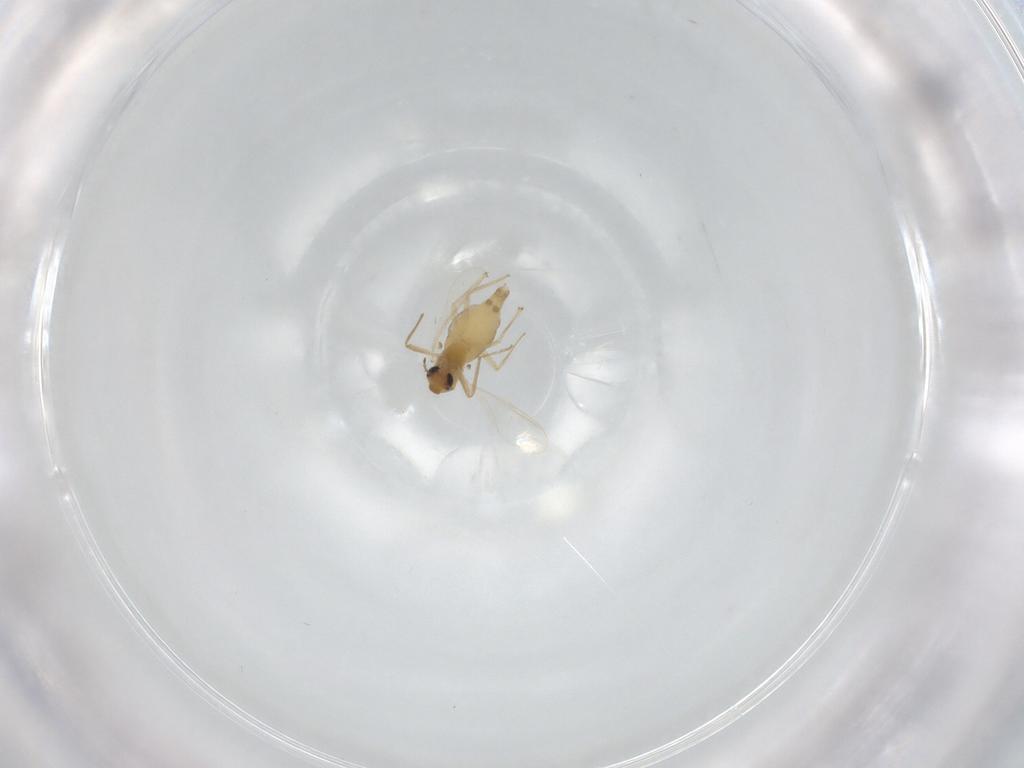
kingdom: Animalia
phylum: Arthropoda
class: Insecta
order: Diptera
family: Chironomidae
